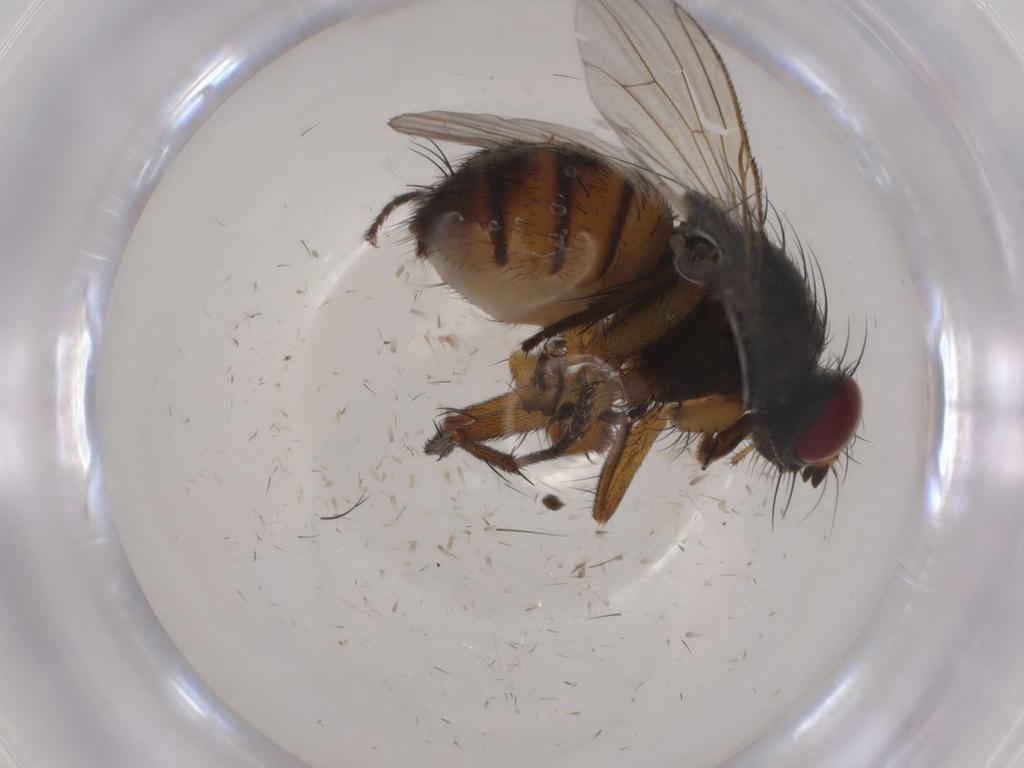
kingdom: Animalia
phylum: Arthropoda
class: Insecta
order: Diptera
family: Muscidae
